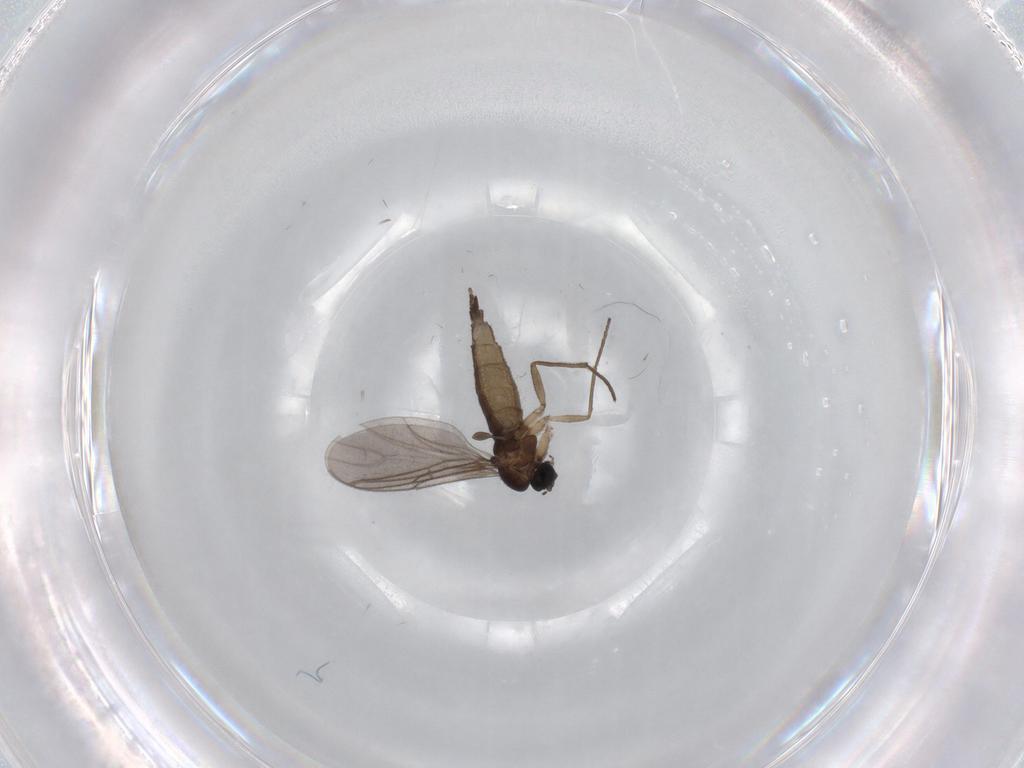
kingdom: Animalia
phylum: Arthropoda
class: Insecta
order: Diptera
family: Sciaridae
